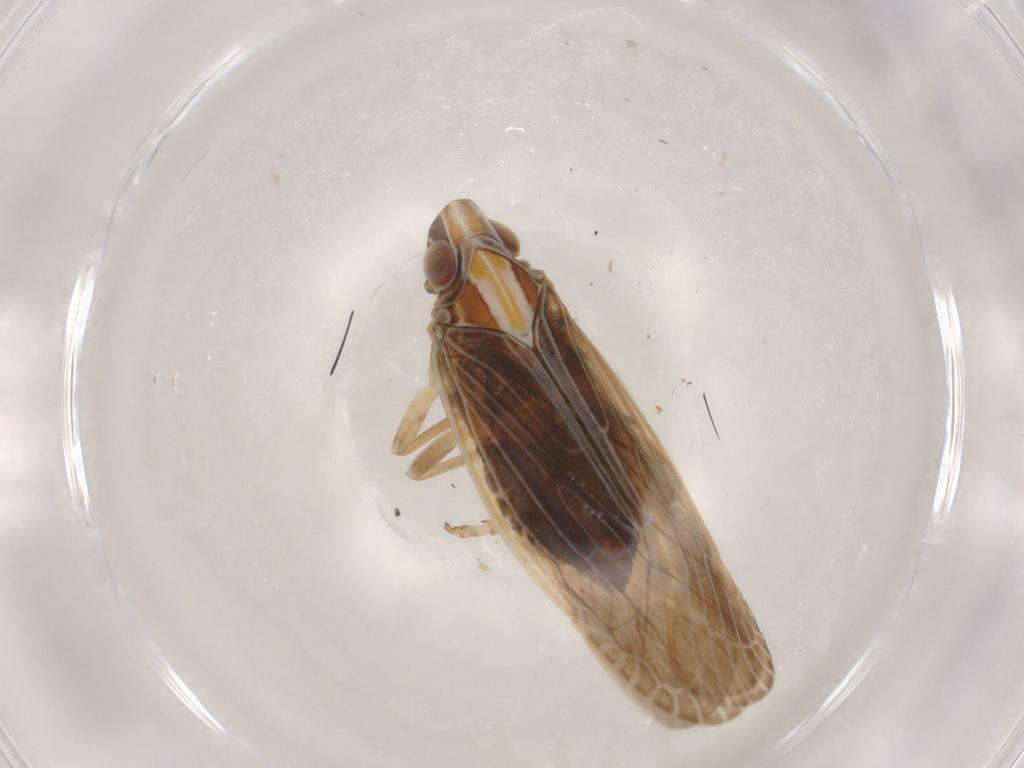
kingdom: Animalia
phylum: Arthropoda
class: Insecta
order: Hemiptera
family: Achilidae
